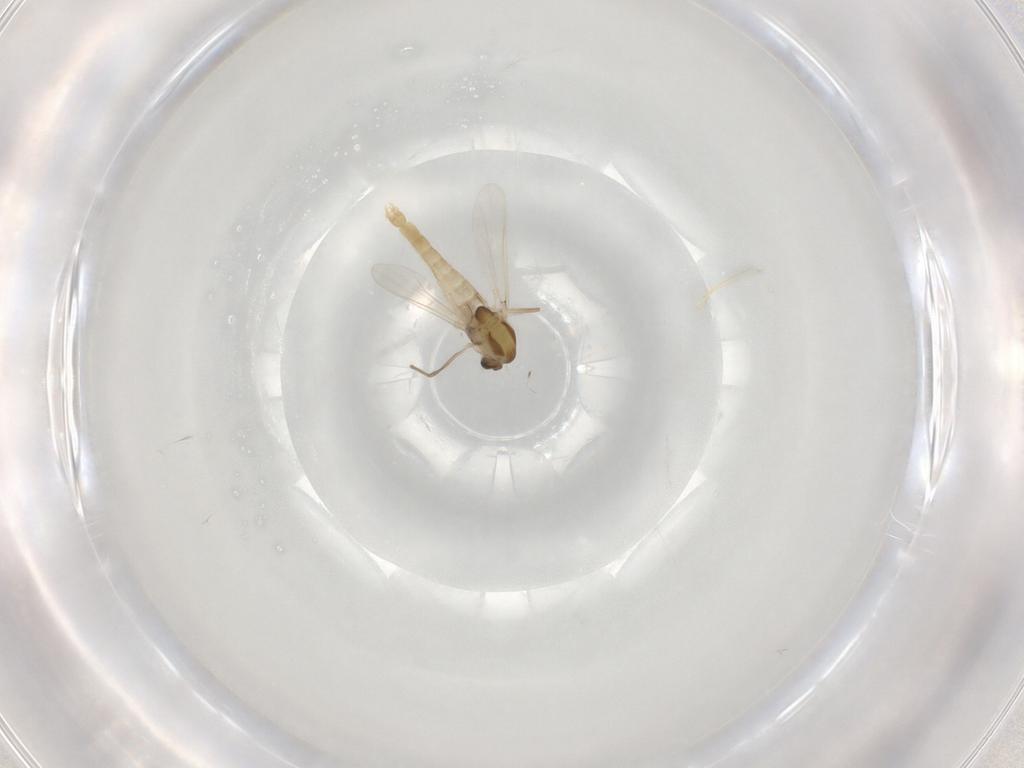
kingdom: Animalia
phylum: Arthropoda
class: Insecta
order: Diptera
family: Chironomidae
